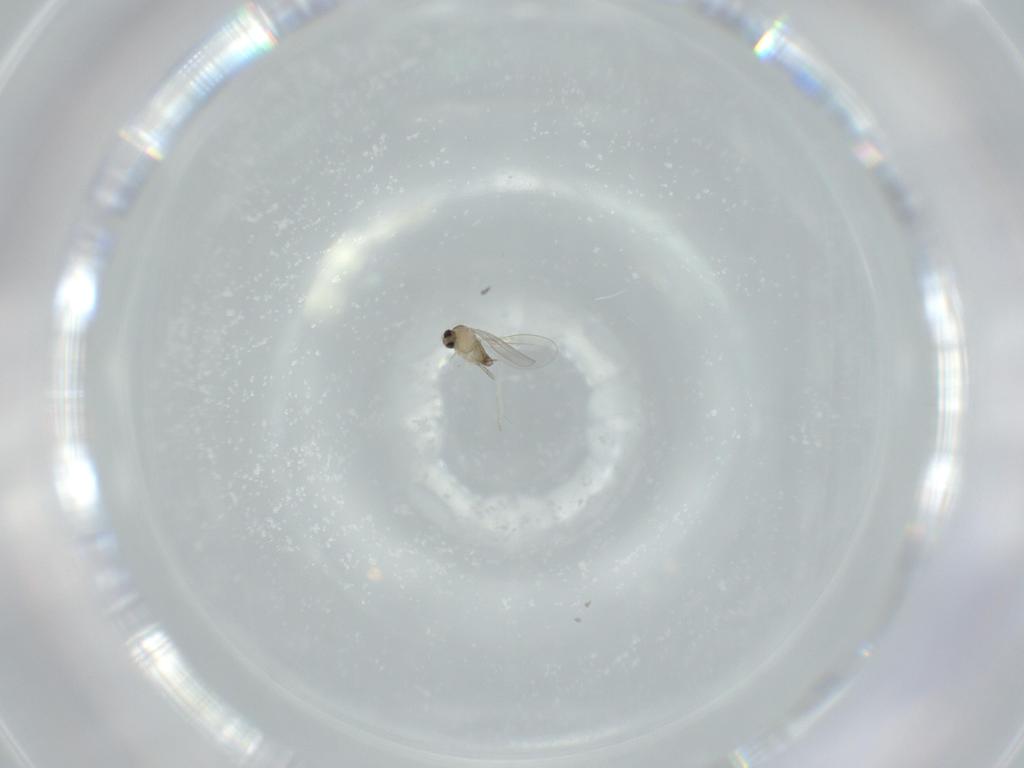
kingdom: Animalia
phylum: Arthropoda
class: Insecta
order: Diptera
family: Cecidomyiidae
